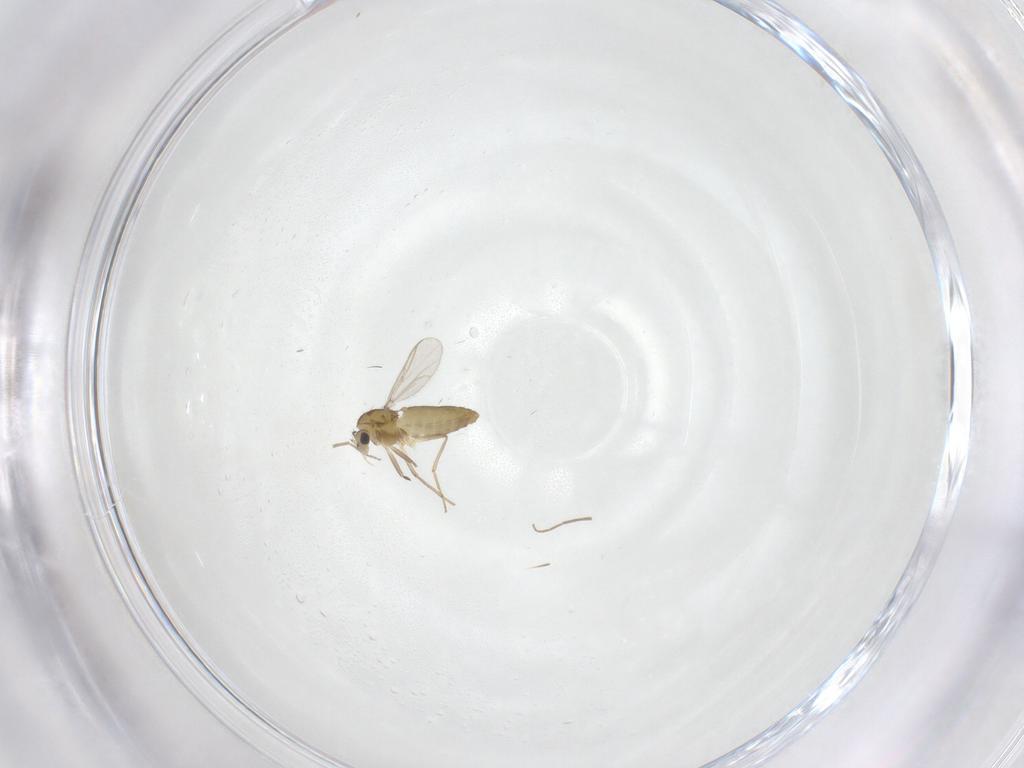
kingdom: Animalia
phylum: Arthropoda
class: Insecta
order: Diptera
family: Chironomidae
